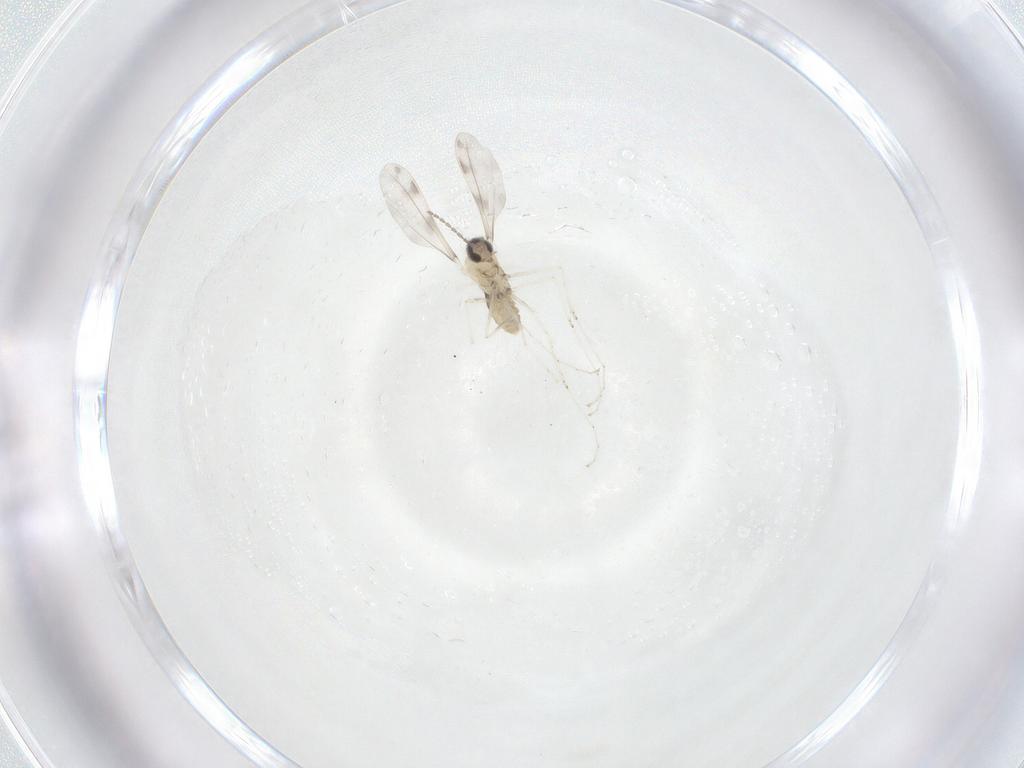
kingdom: Animalia
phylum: Arthropoda
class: Insecta
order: Diptera
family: Cecidomyiidae
